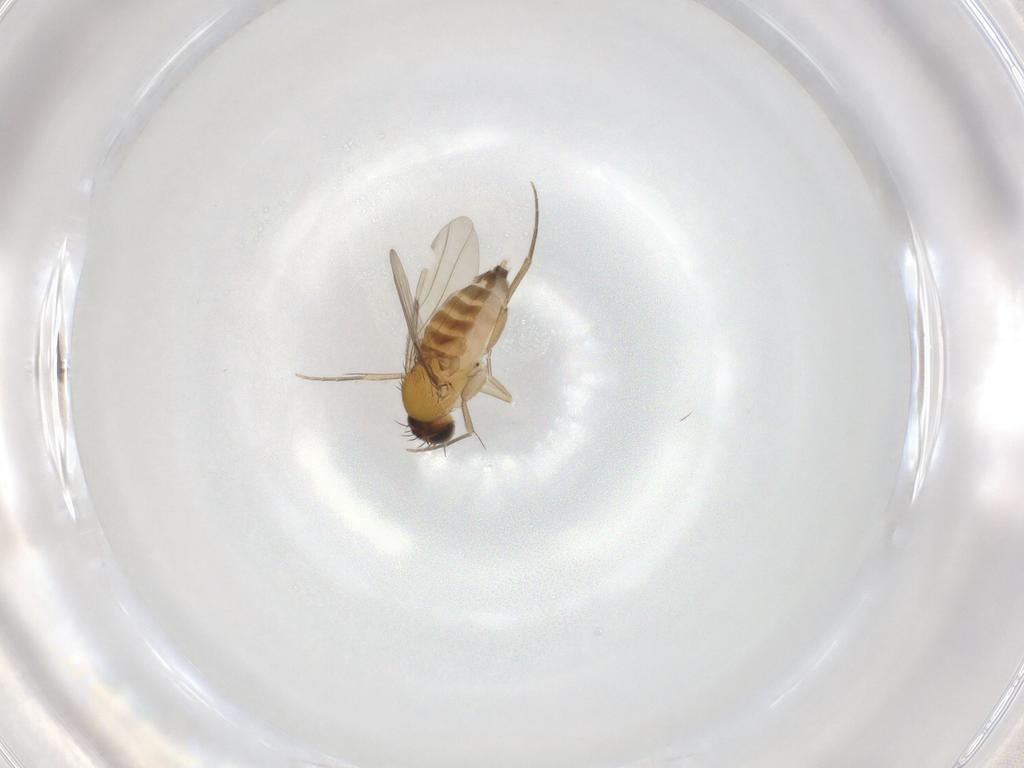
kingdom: Animalia
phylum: Arthropoda
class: Insecta
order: Diptera
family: Phoridae
